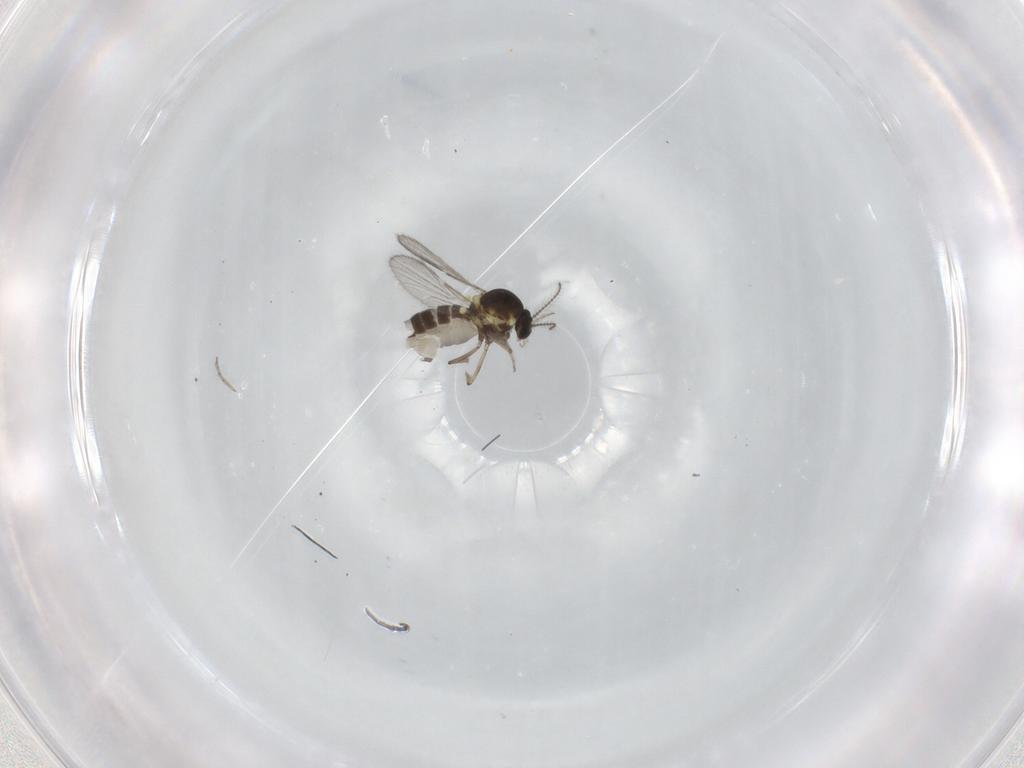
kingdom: Animalia
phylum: Arthropoda
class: Insecta
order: Diptera
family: Ceratopogonidae
